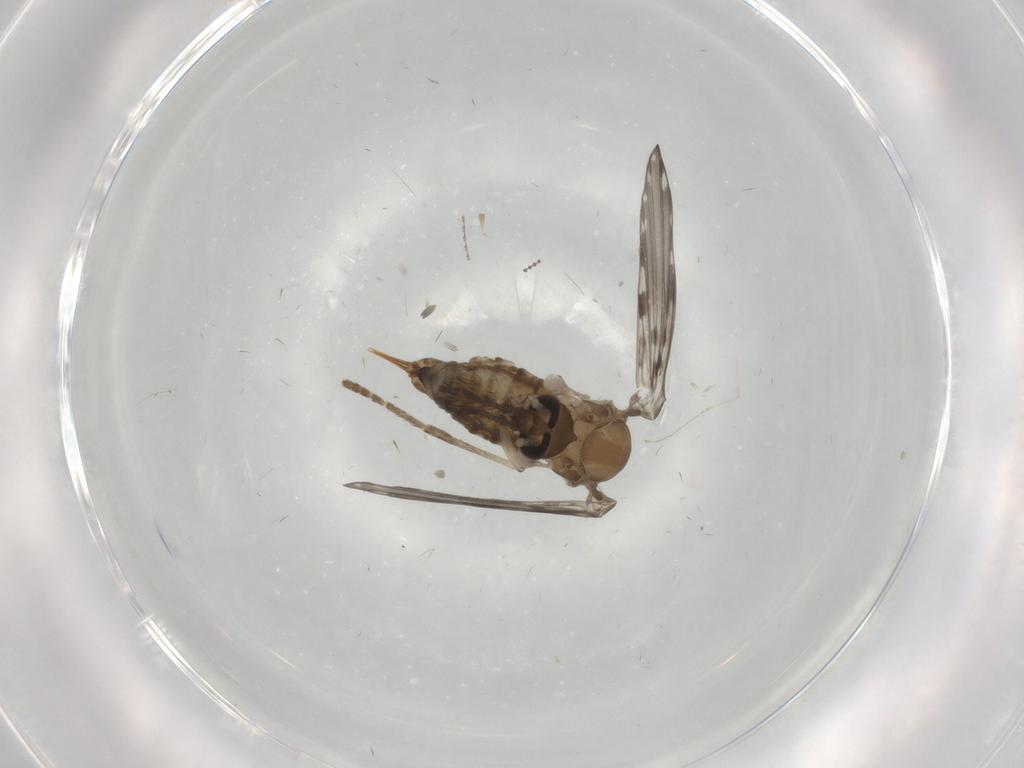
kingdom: Animalia
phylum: Arthropoda
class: Insecta
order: Diptera
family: Psychodidae
